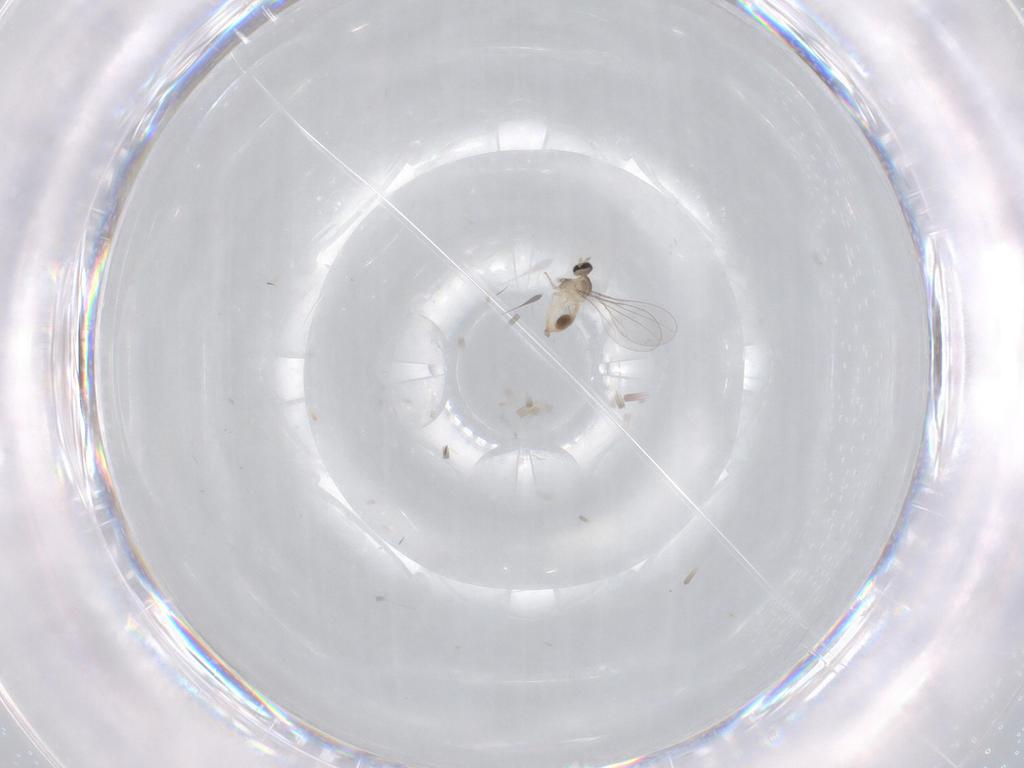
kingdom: Animalia
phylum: Arthropoda
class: Insecta
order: Diptera
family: Cecidomyiidae
